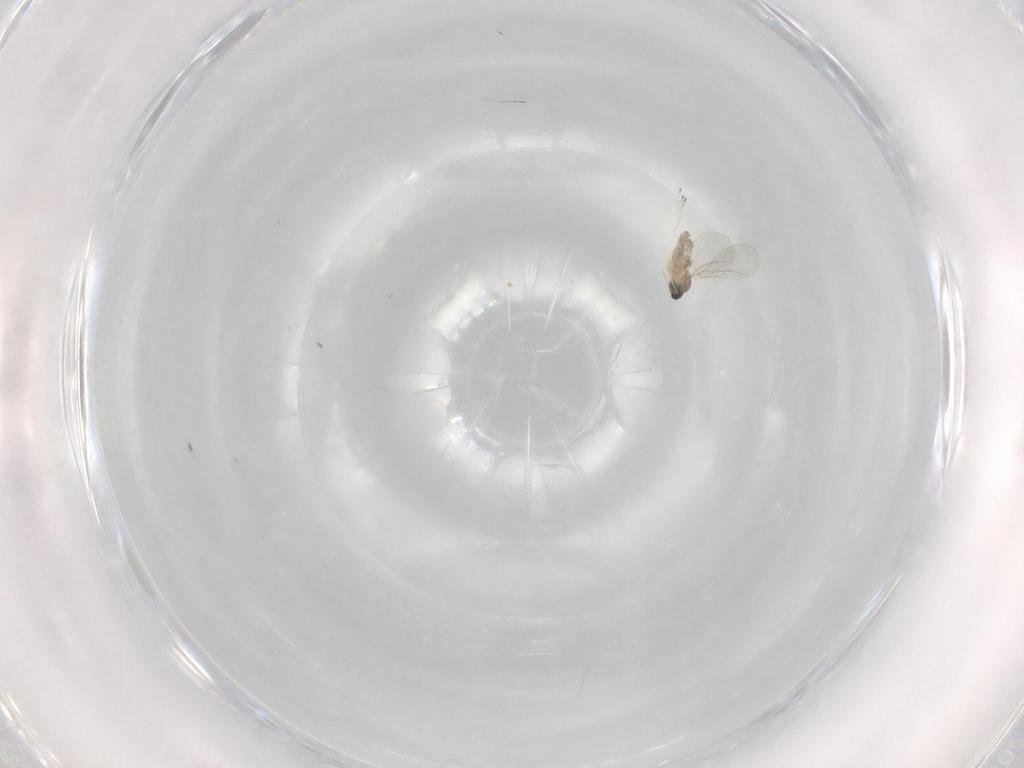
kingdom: Animalia
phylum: Arthropoda
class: Insecta
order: Diptera
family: Cecidomyiidae
